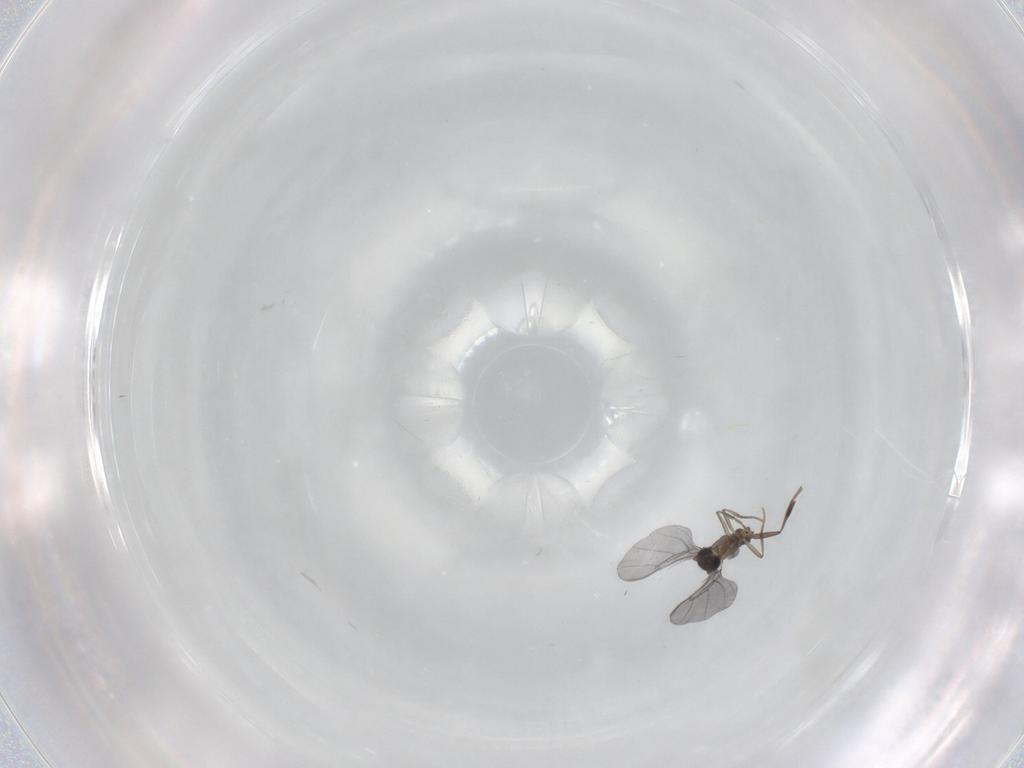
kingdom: Animalia
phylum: Arthropoda
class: Insecta
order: Diptera
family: Phoridae
